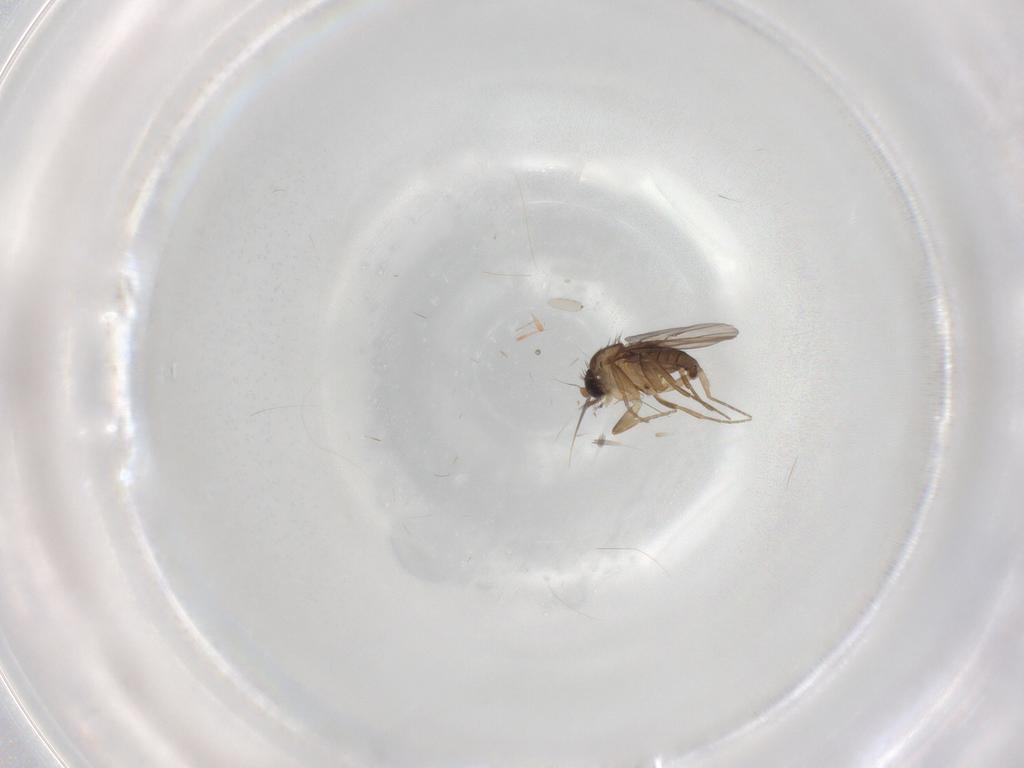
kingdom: Animalia
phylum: Arthropoda
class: Insecta
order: Diptera
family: Psychodidae
